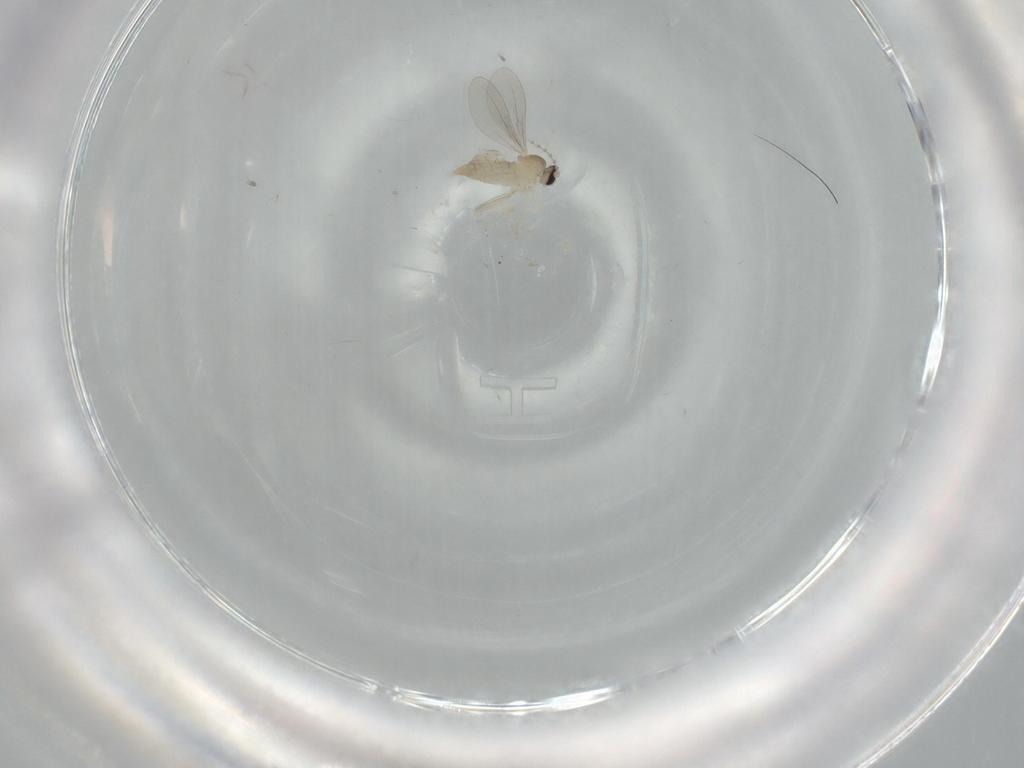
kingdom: Animalia
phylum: Arthropoda
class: Insecta
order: Diptera
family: Cecidomyiidae
